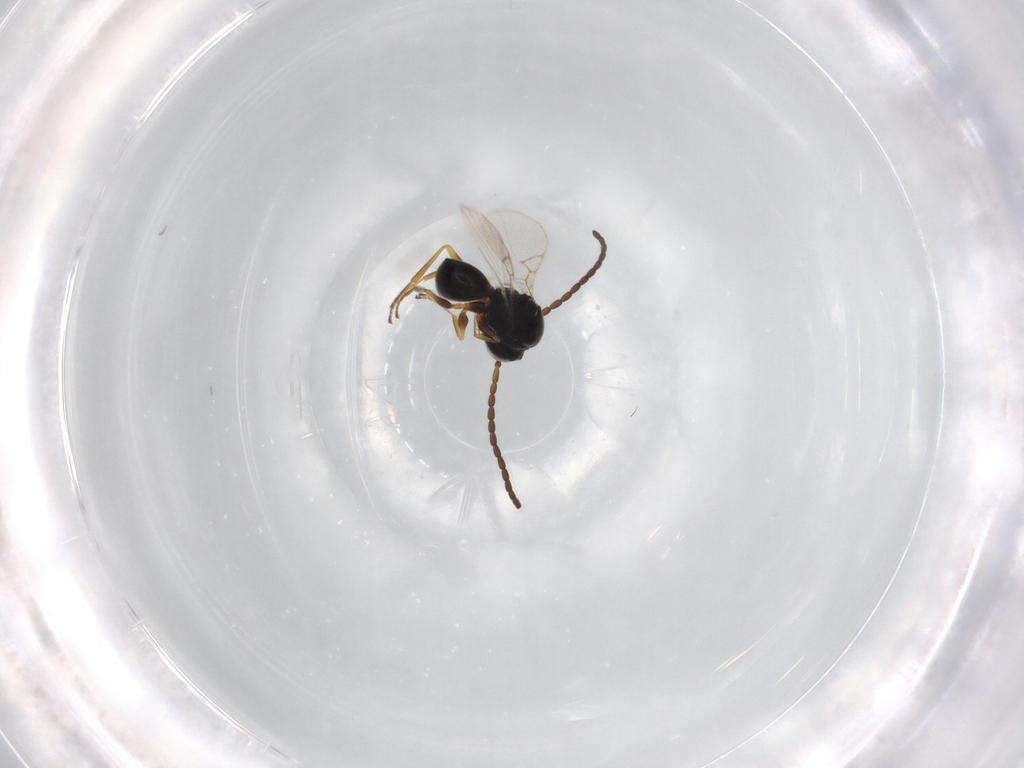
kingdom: Animalia
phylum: Arthropoda
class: Insecta
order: Hymenoptera
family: Figitidae
